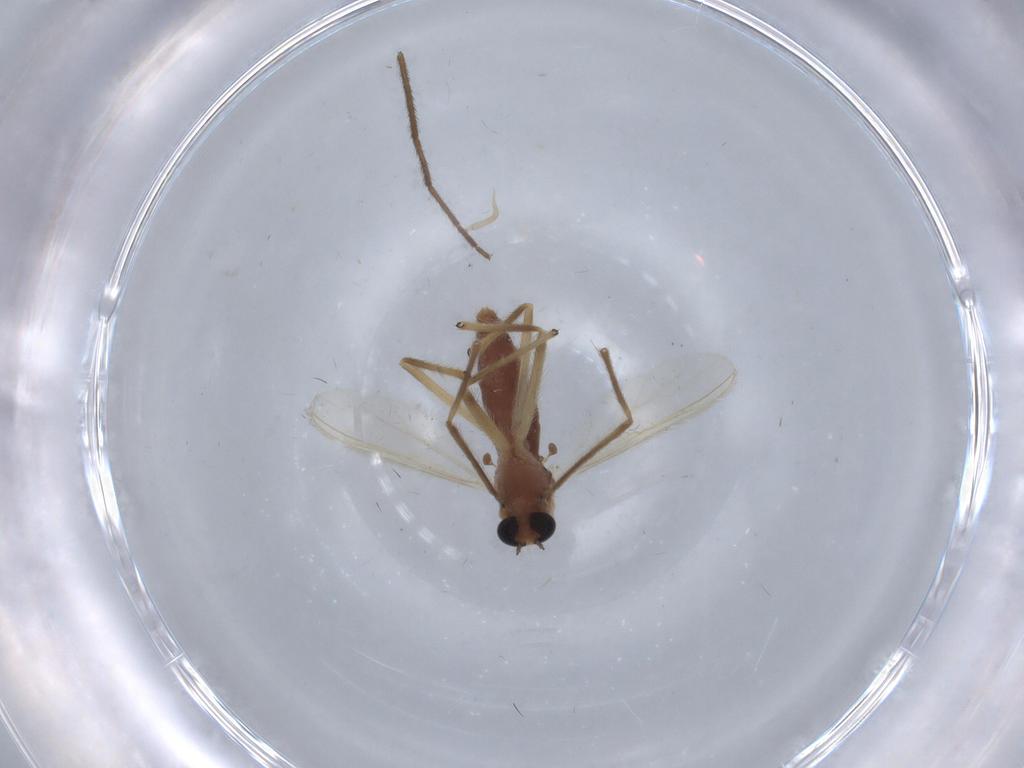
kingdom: Animalia
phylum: Arthropoda
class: Insecta
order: Diptera
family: Chironomidae
